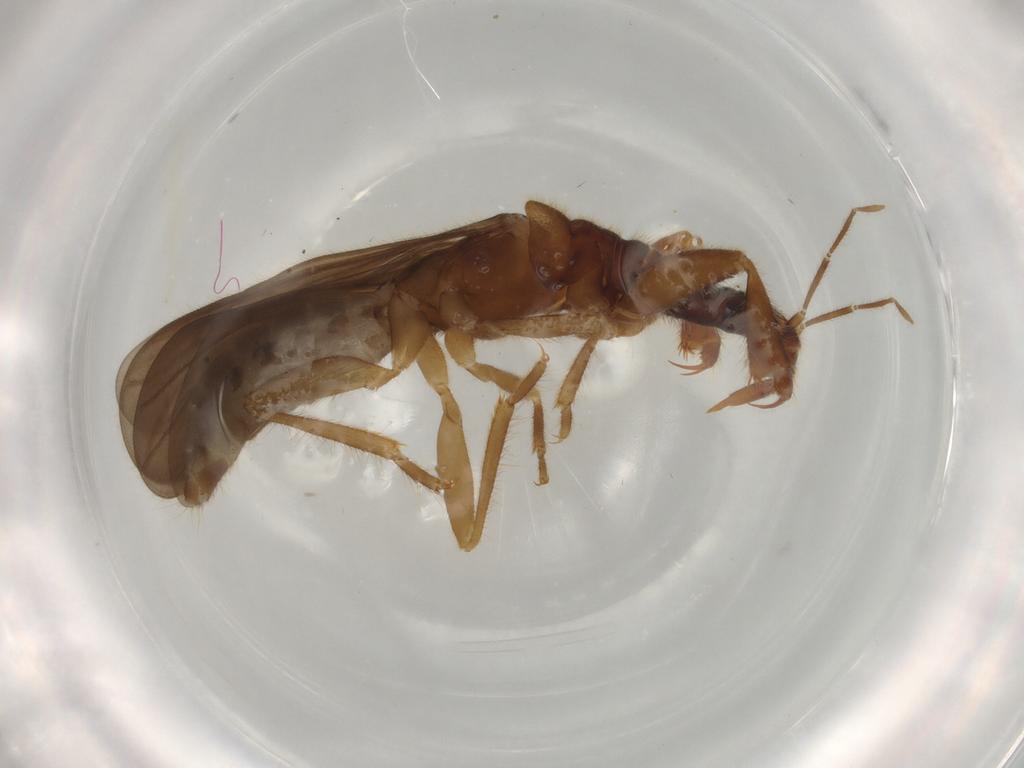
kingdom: Animalia
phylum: Arthropoda
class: Insecta
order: Hemiptera
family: Enicocephalidae
